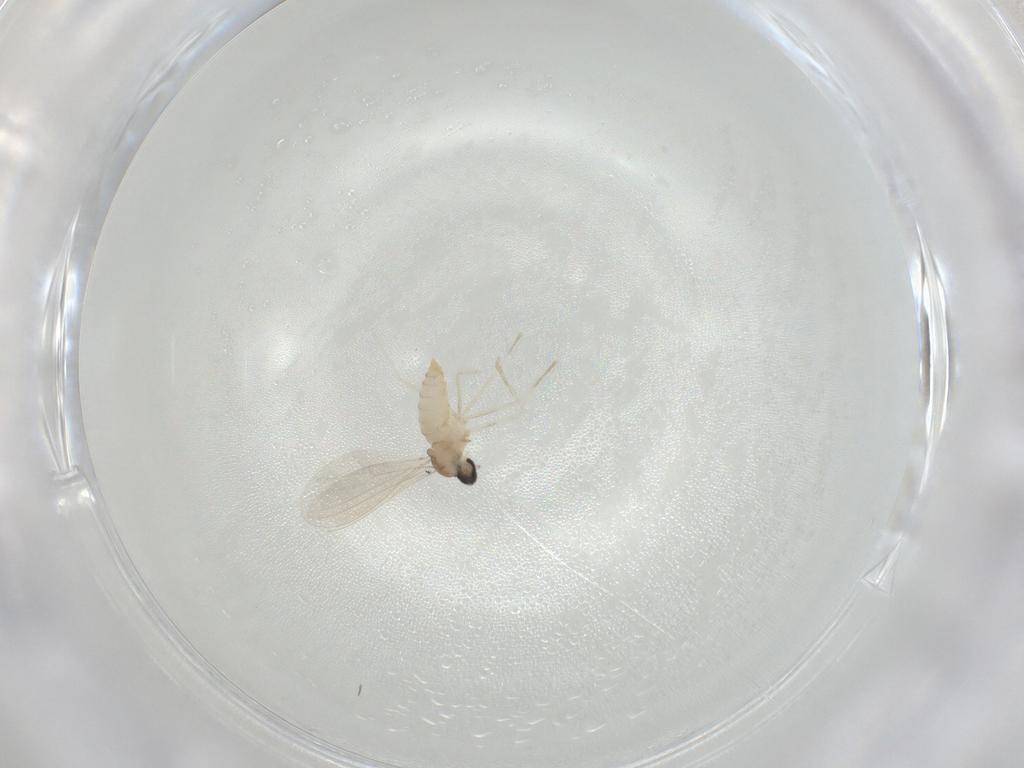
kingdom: Animalia
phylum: Arthropoda
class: Insecta
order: Diptera
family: Cecidomyiidae
